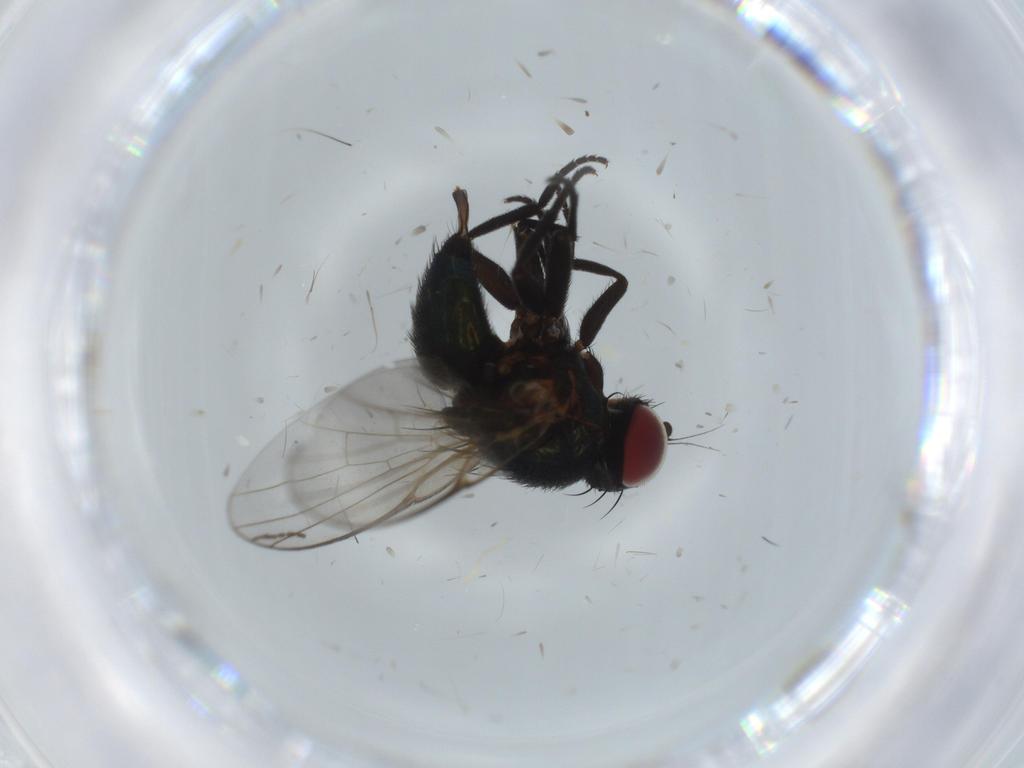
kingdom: Animalia
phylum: Arthropoda
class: Insecta
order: Diptera
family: Agromyzidae
